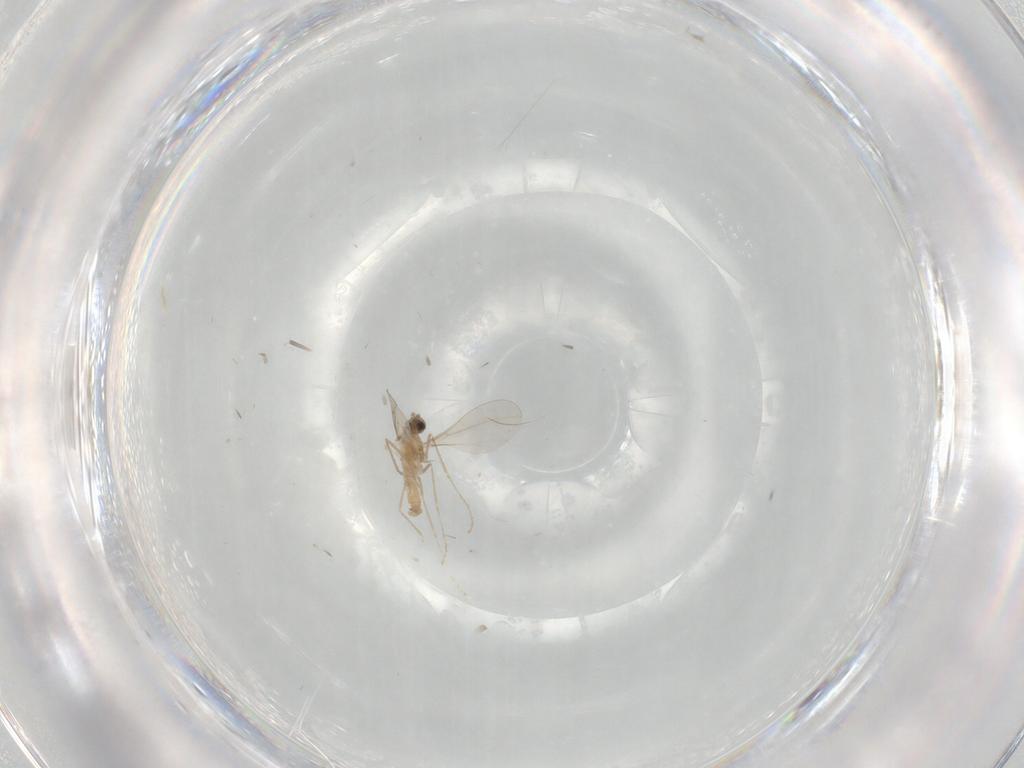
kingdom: Animalia
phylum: Arthropoda
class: Insecta
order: Diptera
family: Cecidomyiidae
